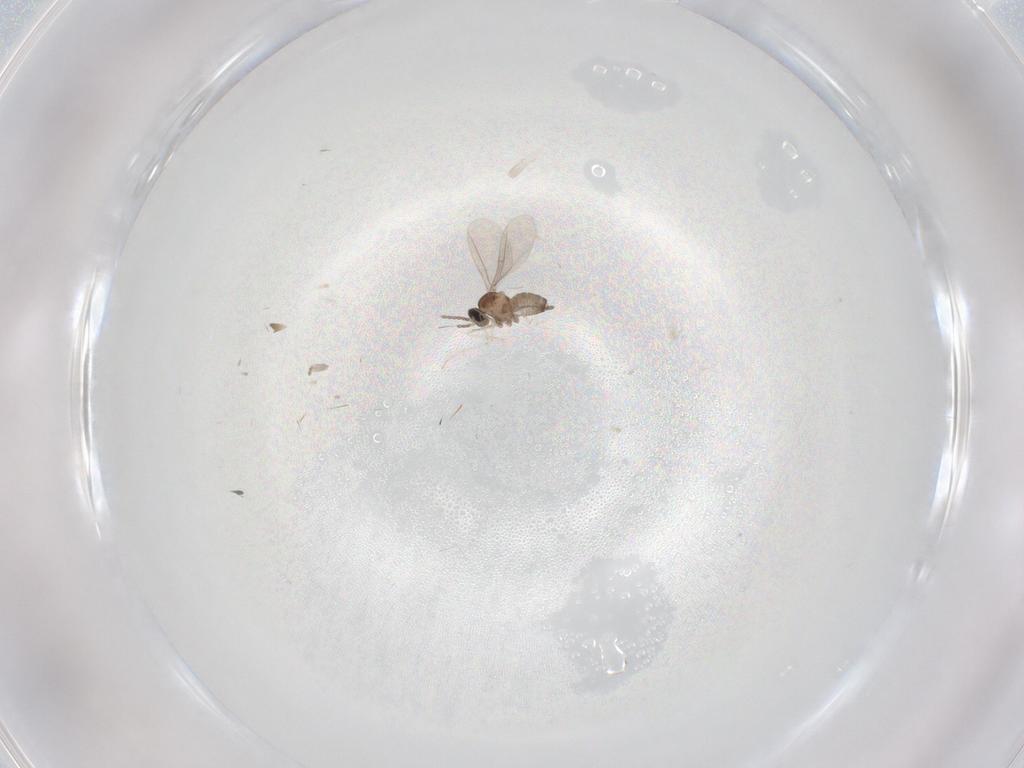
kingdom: Animalia
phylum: Arthropoda
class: Insecta
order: Diptera
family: Cecidomyiidae
